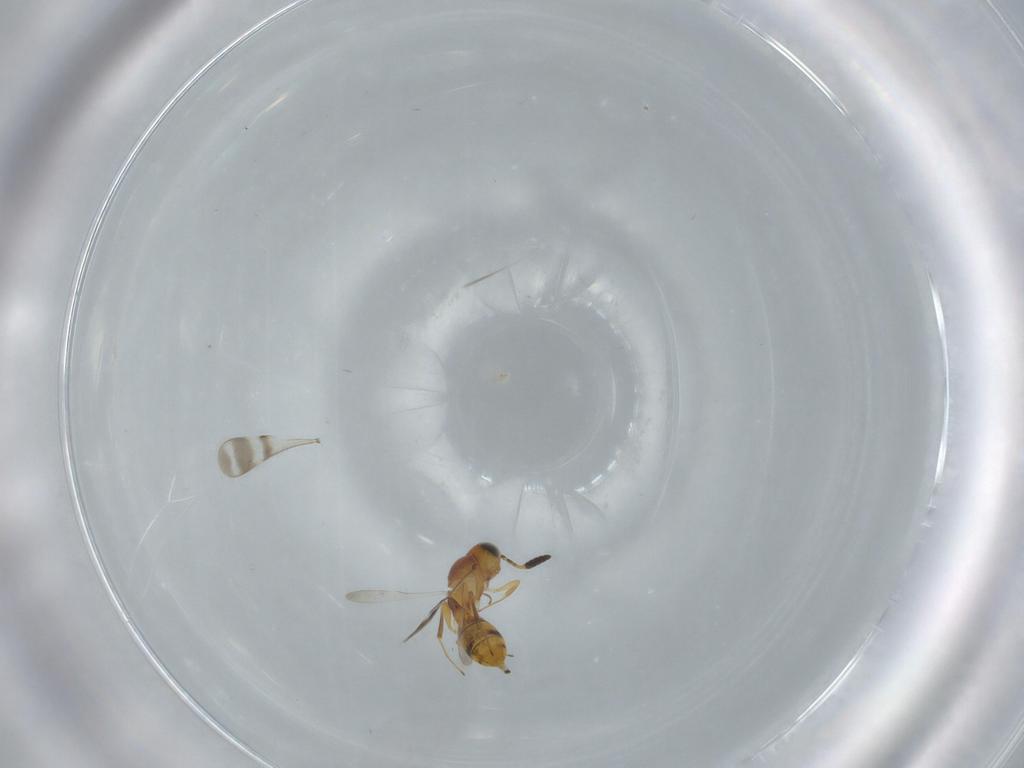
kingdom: Animalia
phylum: Arthropoda
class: Insecta
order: Hymenoptera
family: Scelionidae
